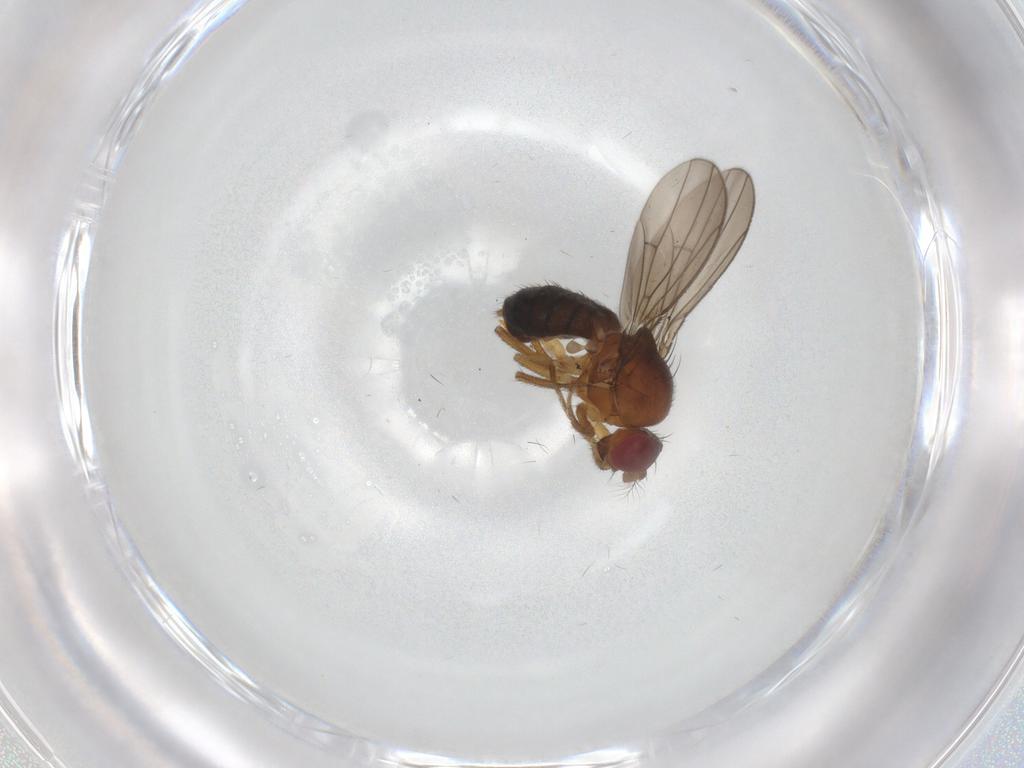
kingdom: Animalia
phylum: Arthropoda
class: Insecta
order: Diptera
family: Drosophilidae
